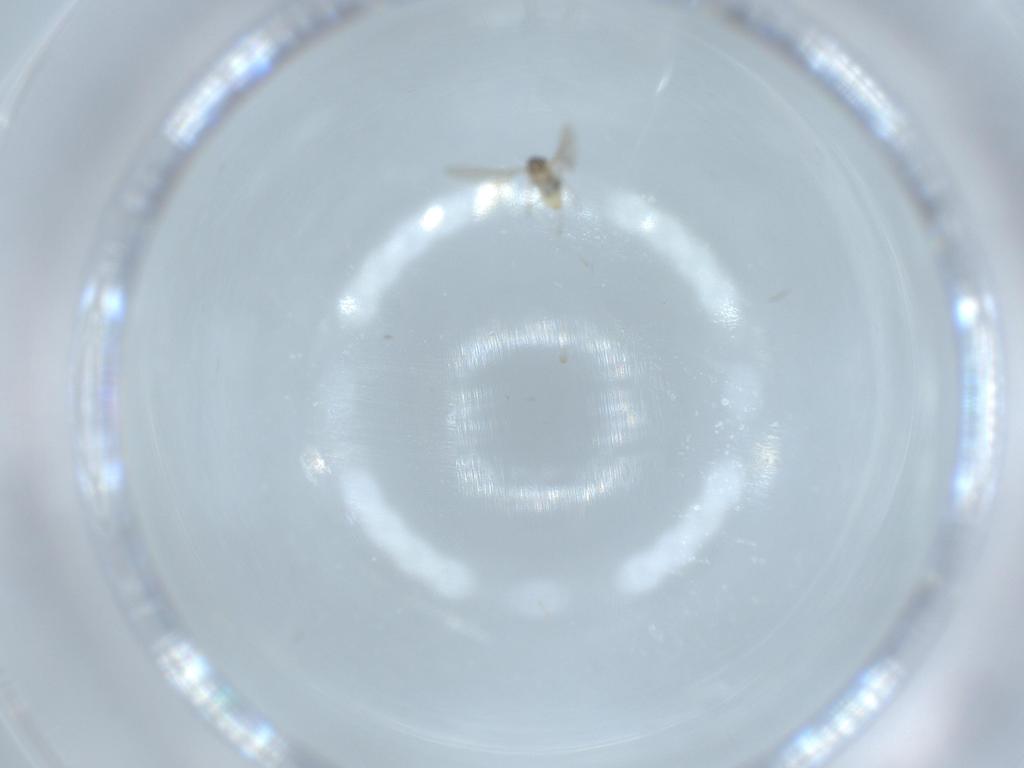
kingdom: Animalia
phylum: Arthropoda
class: Insecta
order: Diptera
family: Cecidomyiidae
